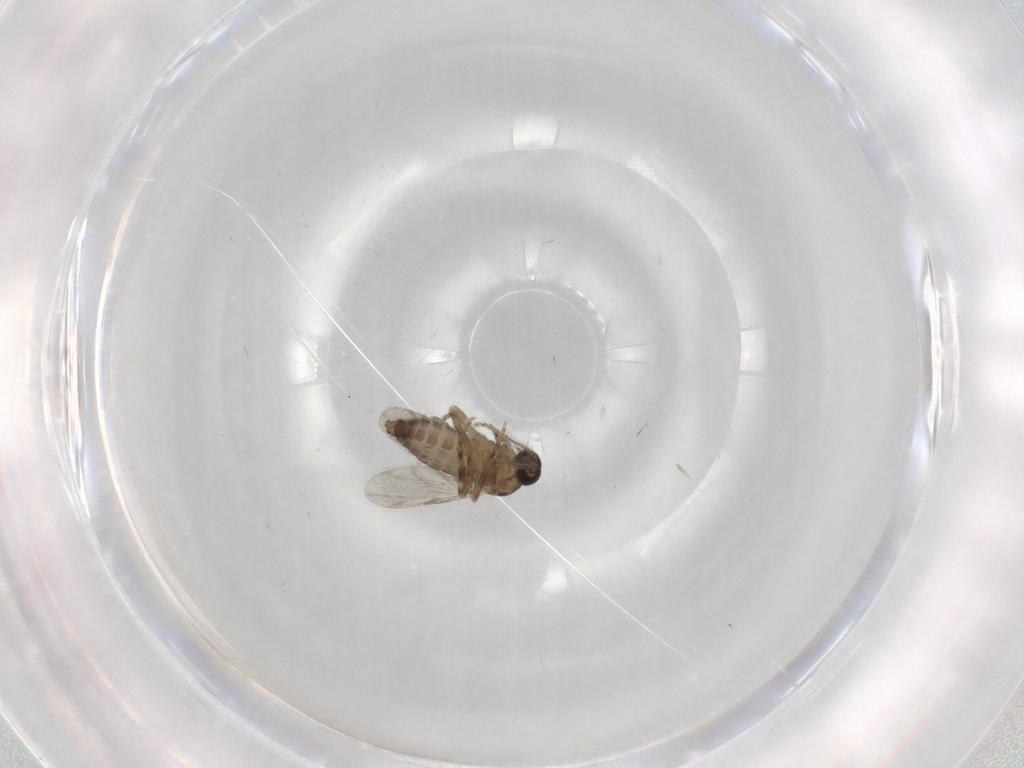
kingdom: Animalia
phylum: Arthropoda
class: Insecta
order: Diptera
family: Ceratopogonidae
